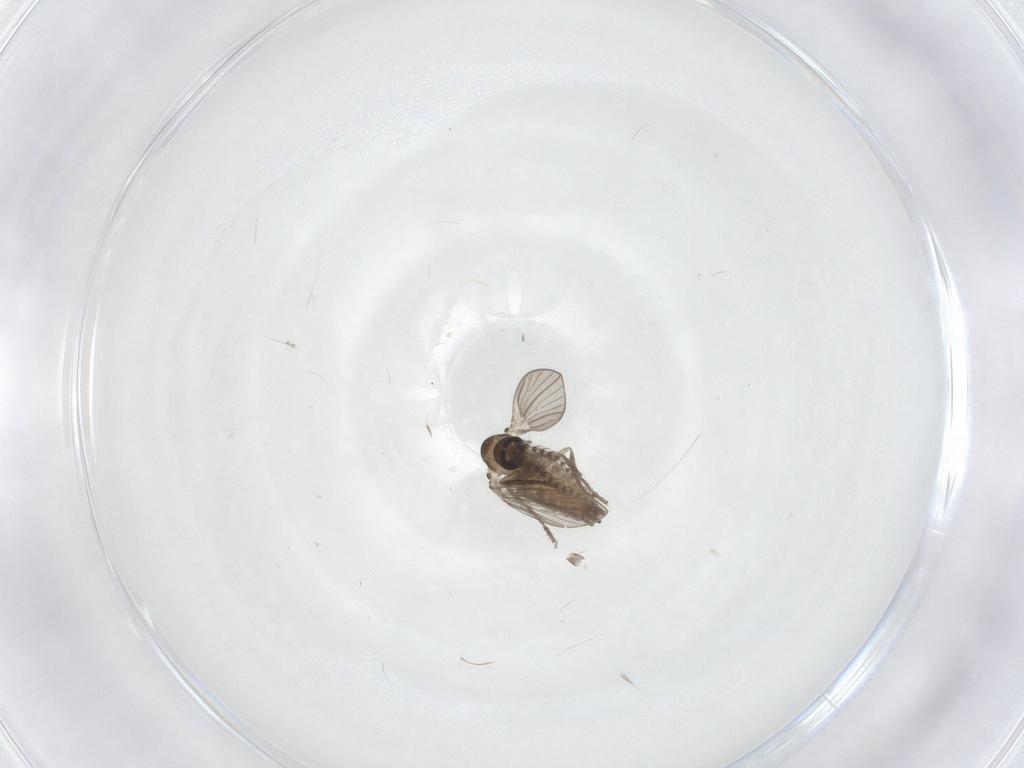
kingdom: Animalia
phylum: Arthropoda
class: Insecta
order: Diptera
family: Psychodidae
